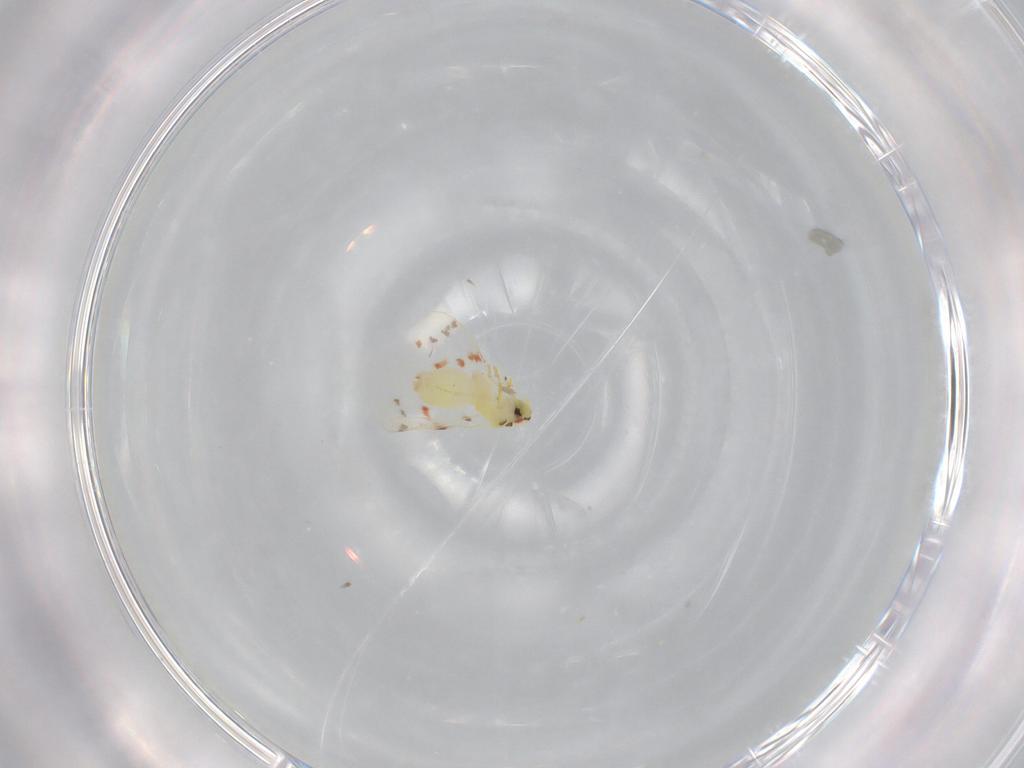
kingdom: Animalia
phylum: Arthropoda
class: Insecta
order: Hemiptera
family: Aleyrodidae
